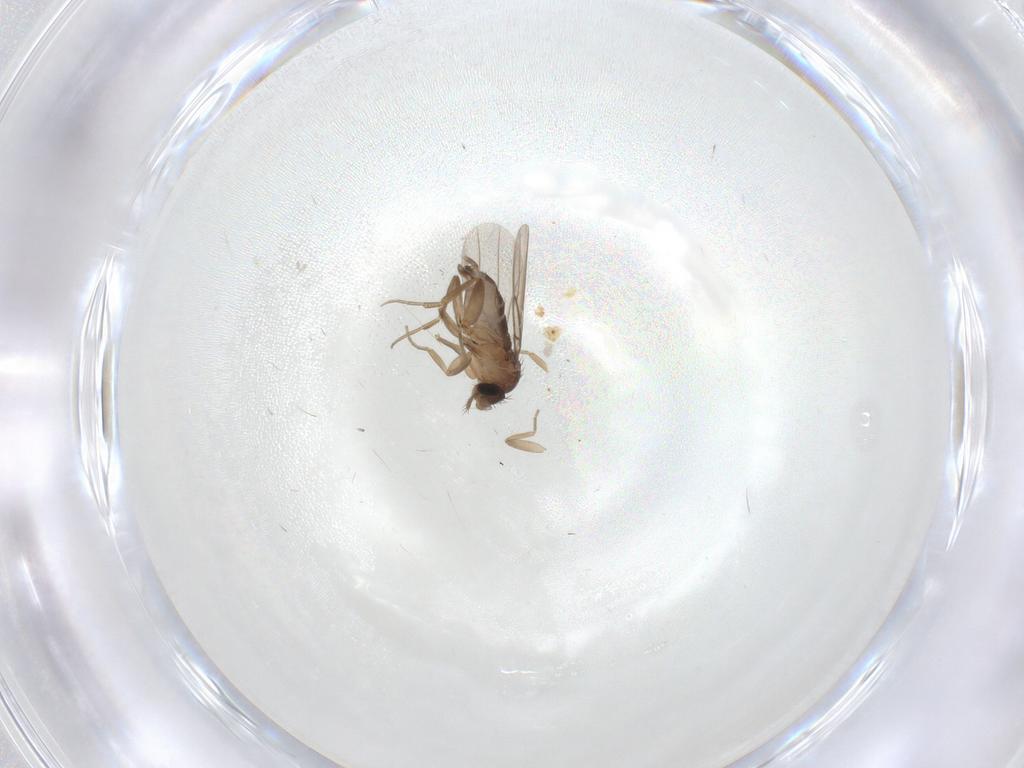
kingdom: Animalia
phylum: Arthropoda
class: Insecta
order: Diptera
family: Phoridae
